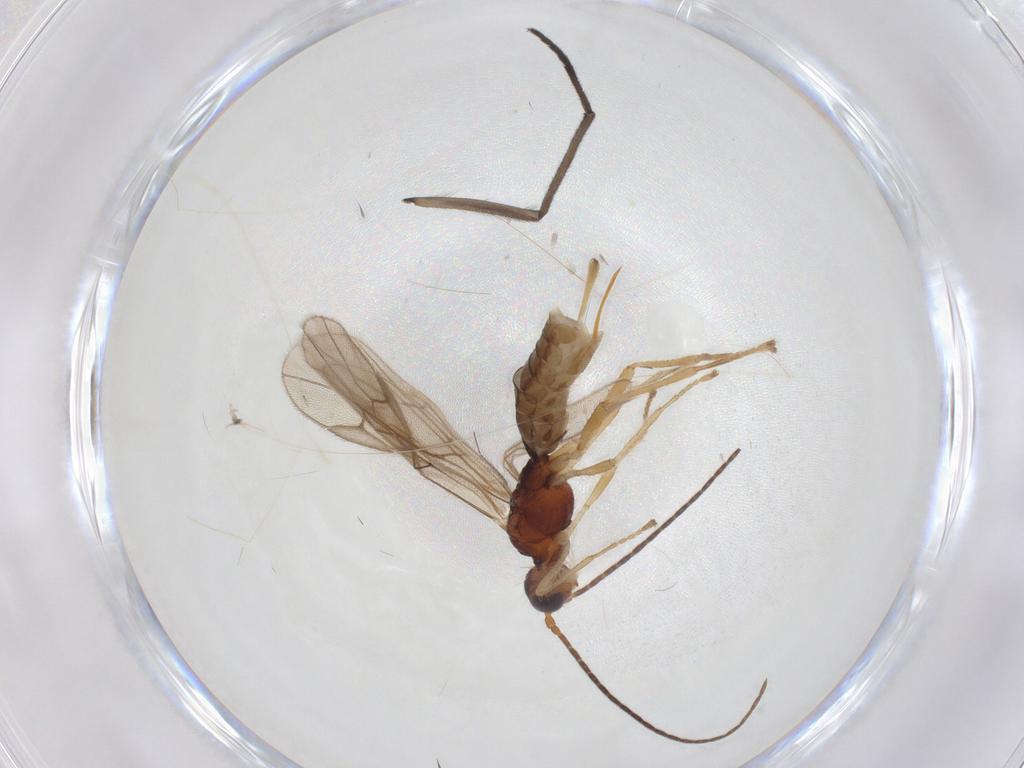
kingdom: Animalia
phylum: Arthropoda
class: Insecta
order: Hymenoptera
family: Braconidae
